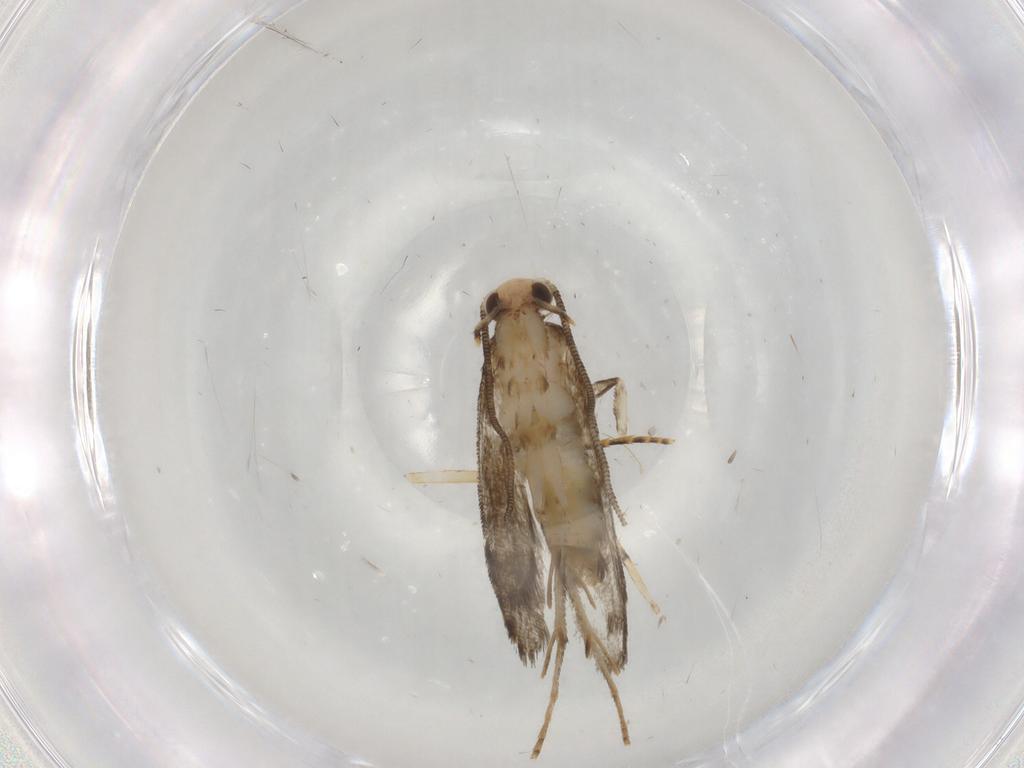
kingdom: Animalia
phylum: Arthropoda
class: Insecta
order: Lepidoptera
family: Tineidae
